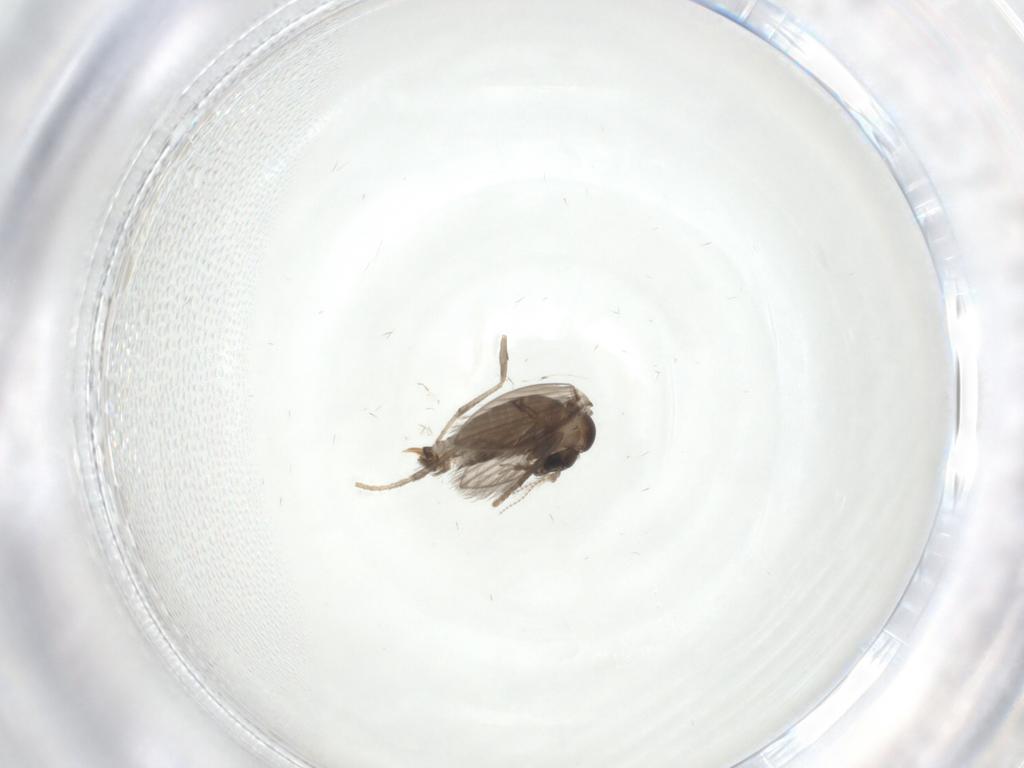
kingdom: Animalia
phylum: Arthropoda
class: Insecta
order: Diptera
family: Psychodidae
